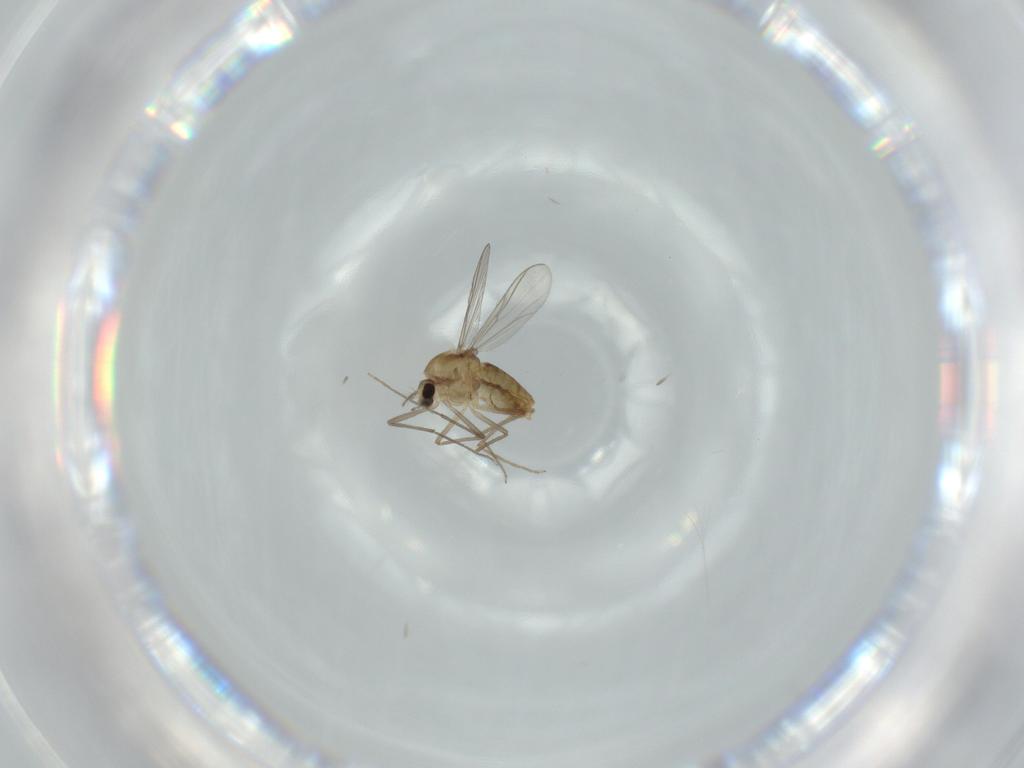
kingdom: Animalia
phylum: Arthropoda
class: Insecta
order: Diptera
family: Chironomidae
